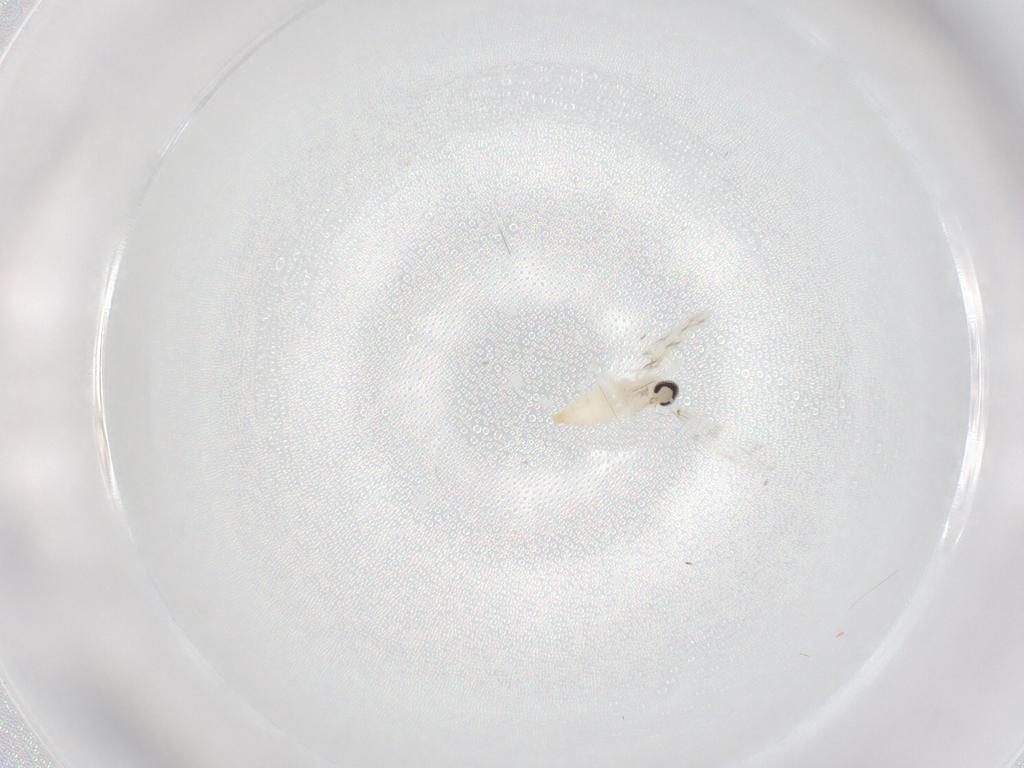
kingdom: Animalia
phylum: Arthropoda
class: Insecta
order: Diptera
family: Cecidomyiidae
